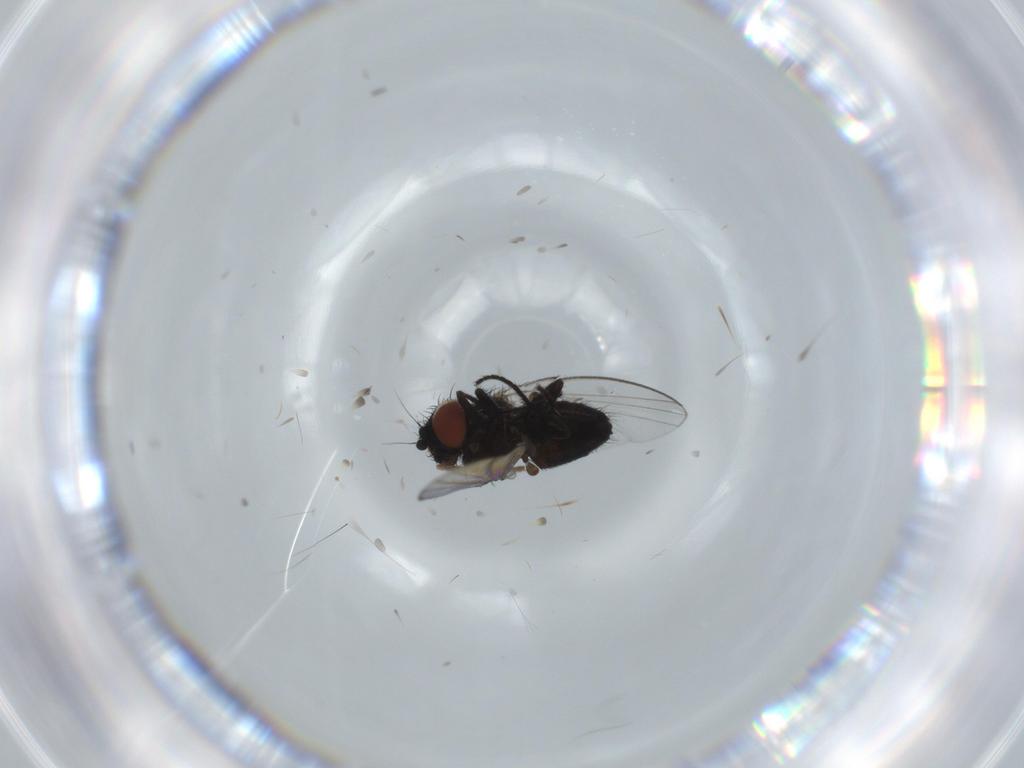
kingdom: Animalia
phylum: Arthropoda
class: Insecta
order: Diptera
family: Milichiidae
